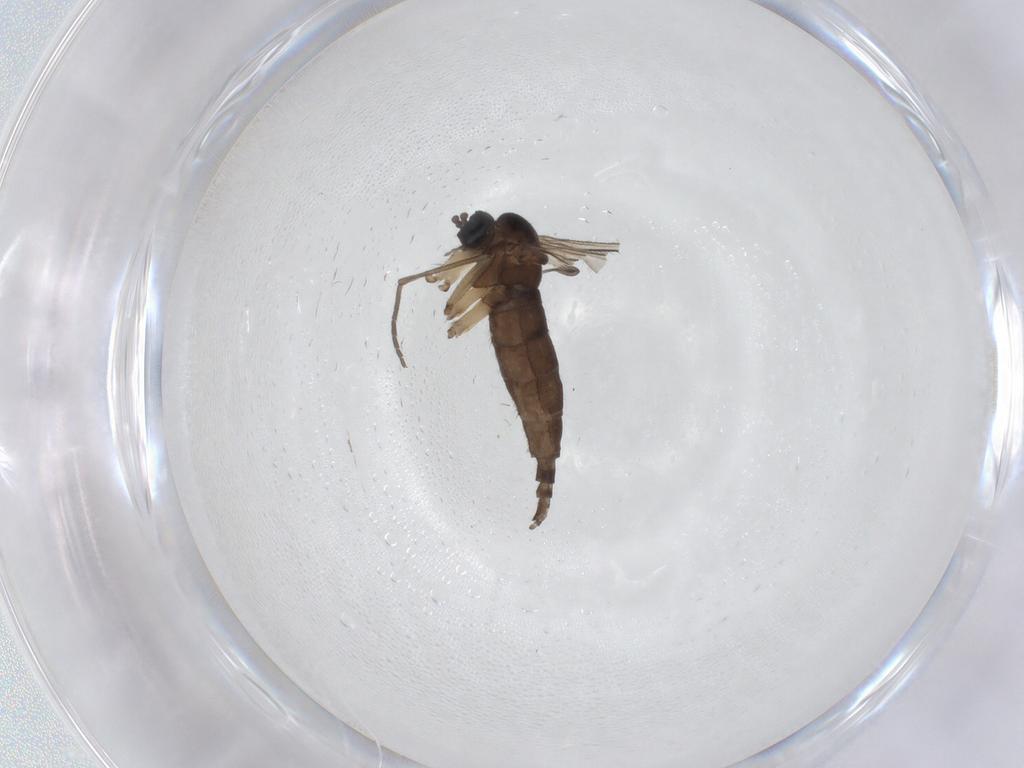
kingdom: Animalia
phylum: Arthropoda
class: Insecta
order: Diptera
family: Sciaridae
